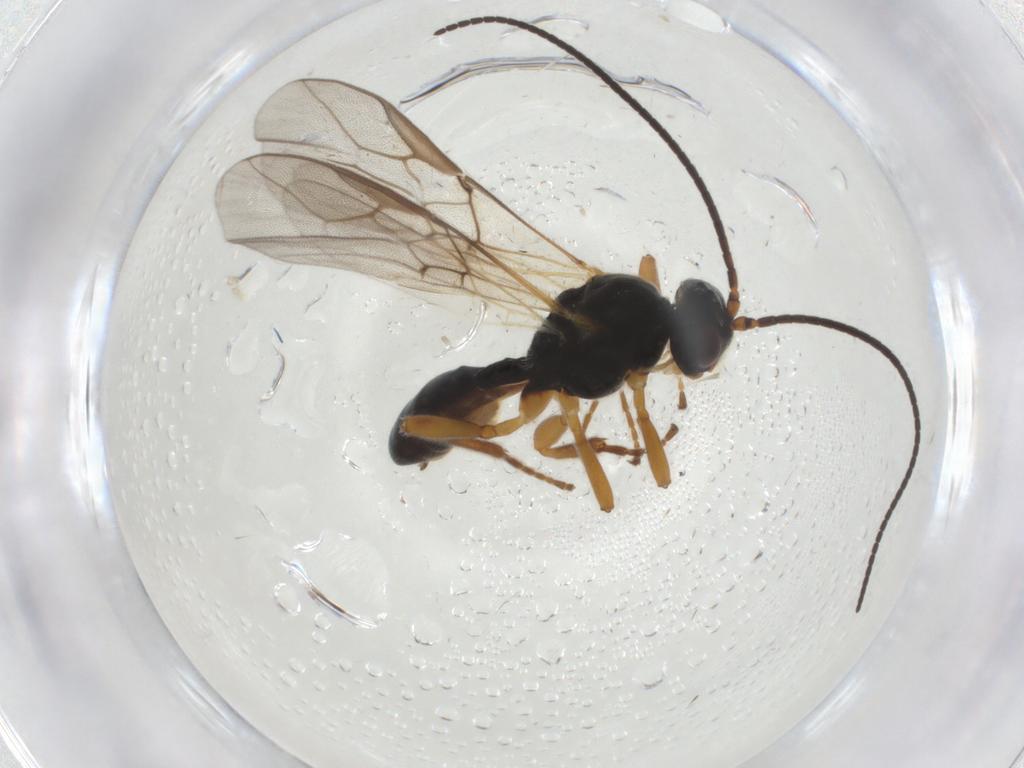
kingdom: Animalia
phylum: Arthropoda
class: Insecta
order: Hymenoptera
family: Braconidae
